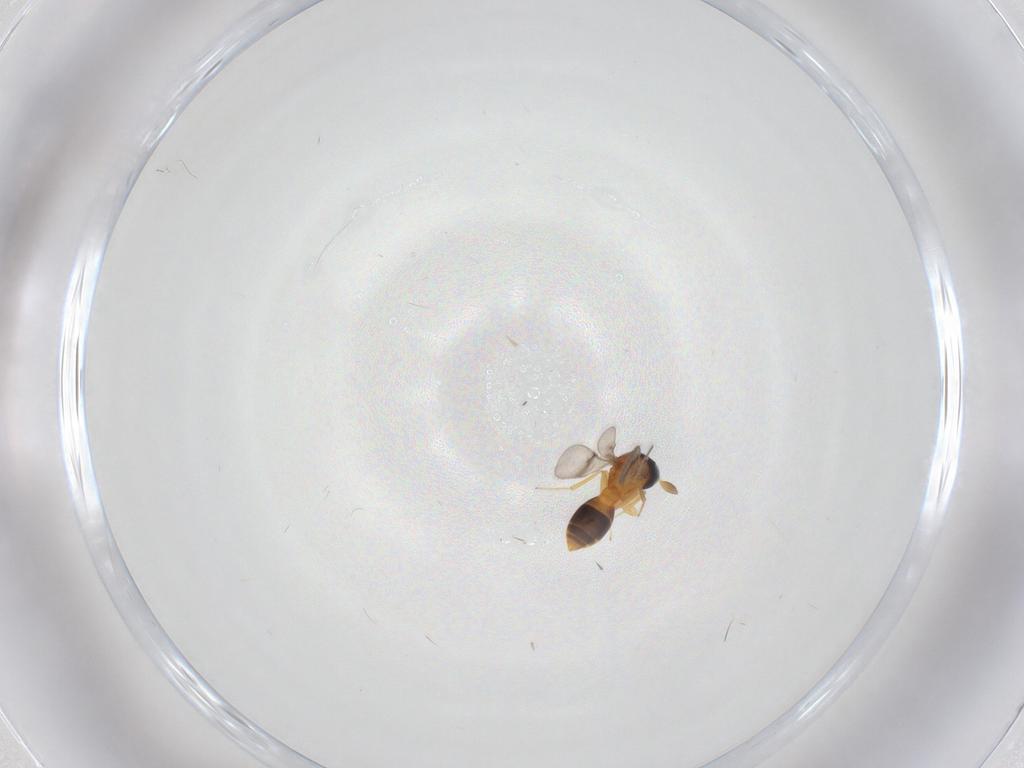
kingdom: Animalia
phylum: Arthropoda
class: Insecta
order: Hymenoptera
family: Scelionidae
